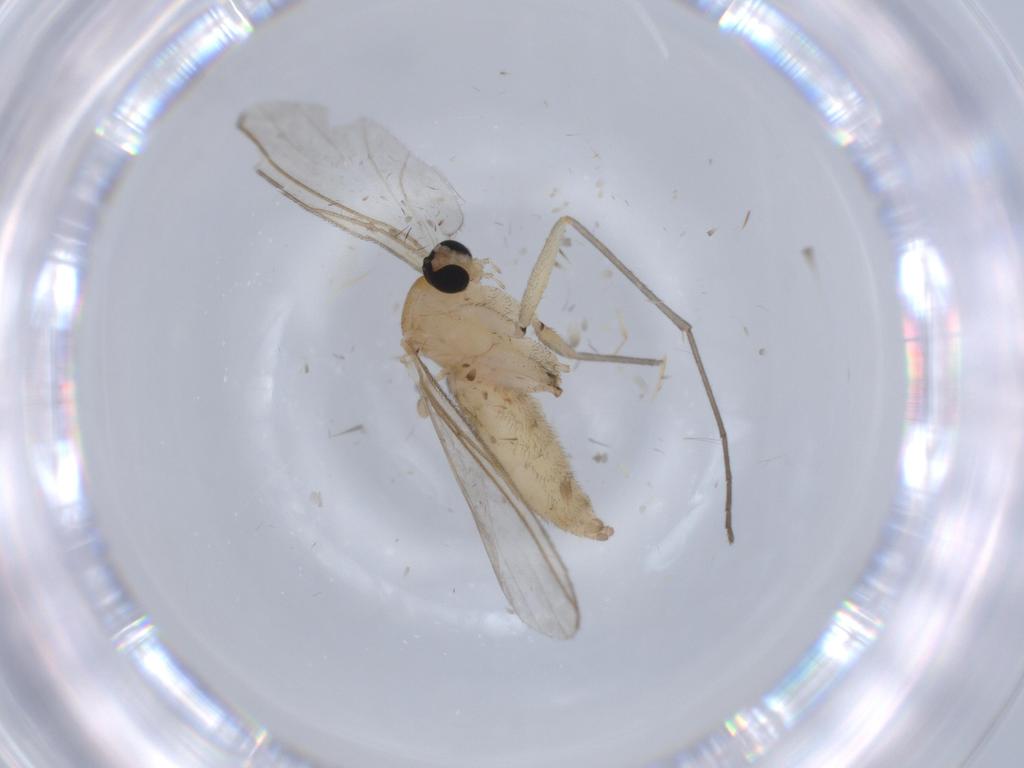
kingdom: Animalia
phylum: Arthropoda
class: Insecta
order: Diptera
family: Sciaridae
